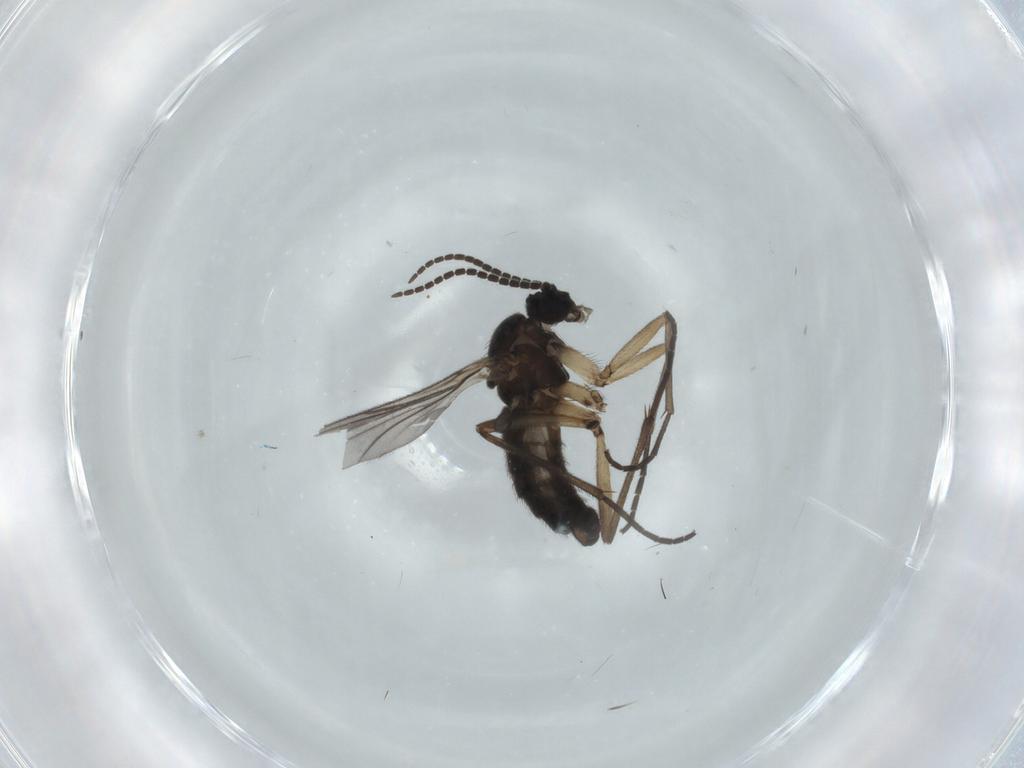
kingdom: Animalia
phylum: Arthropoda
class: Insecta
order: Diptera
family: Sciaridae
